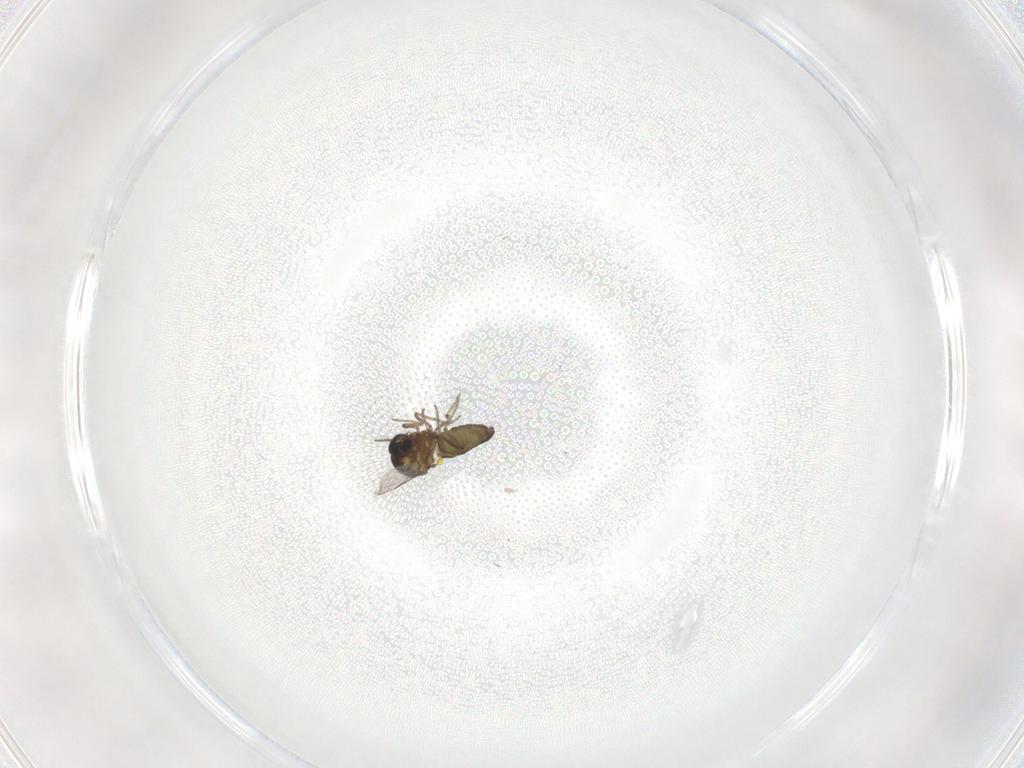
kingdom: Animalia
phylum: Arthropoda
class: Insecta
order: Diptera
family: Ceratopogonidae
